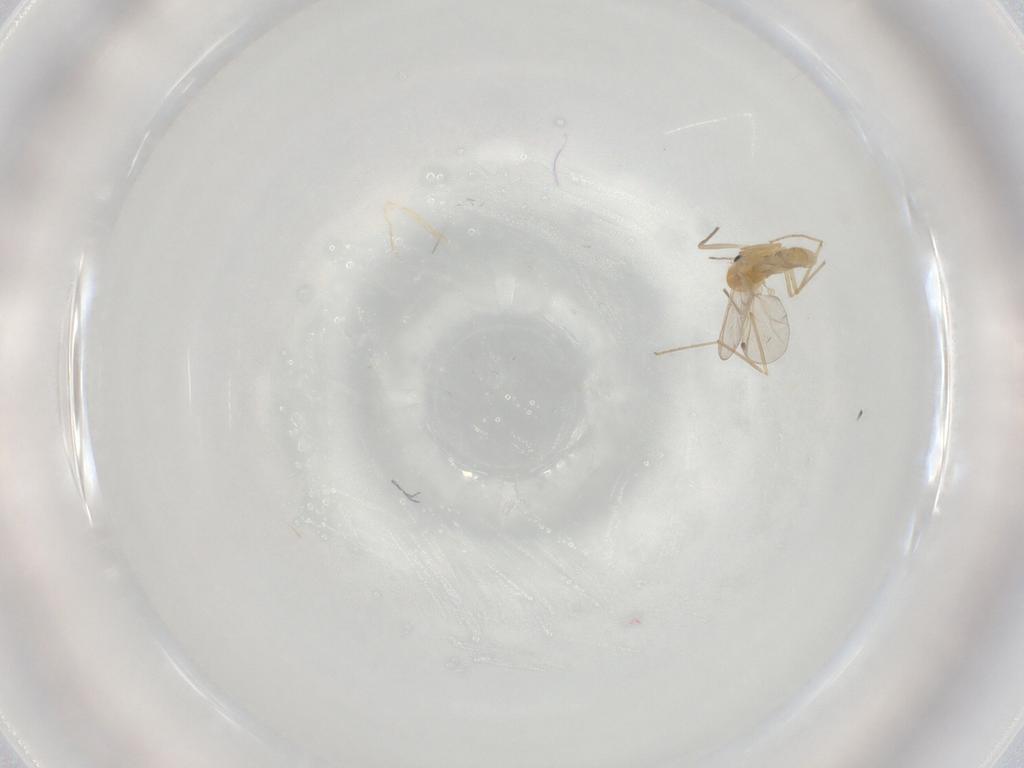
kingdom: Animalia
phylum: Arthropoda
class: Insecta
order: Diptera
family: Chironomidae
